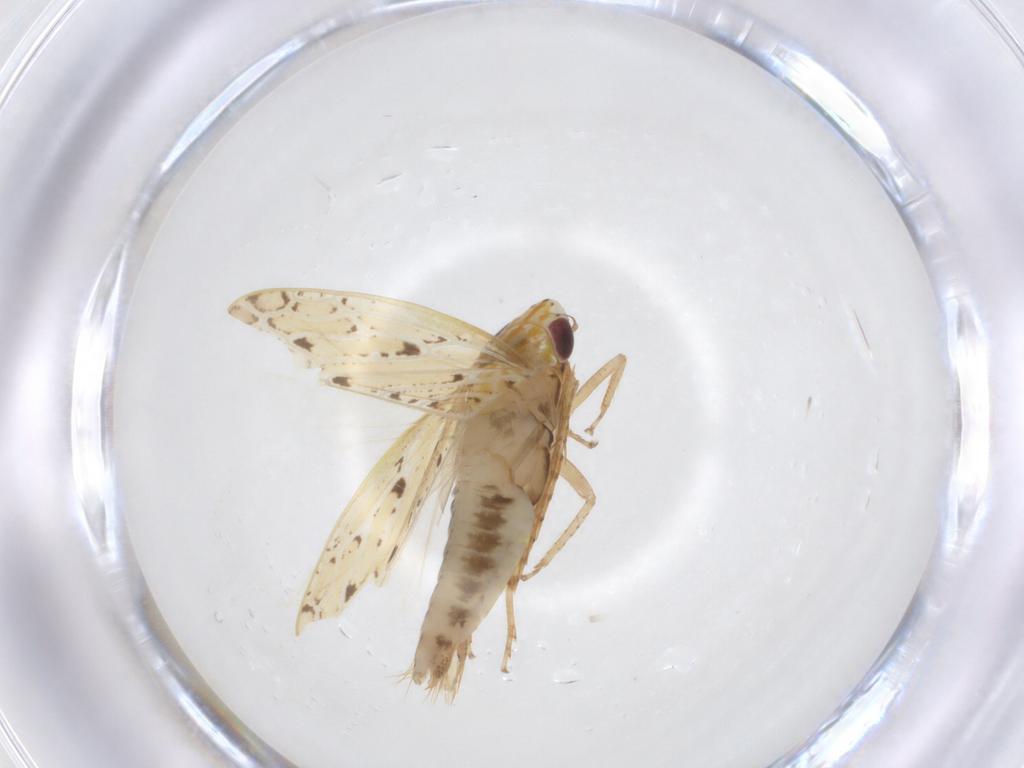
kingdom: Animalia
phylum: Arthropoda
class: Insecta
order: Hemiptera
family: Cicadellidae
